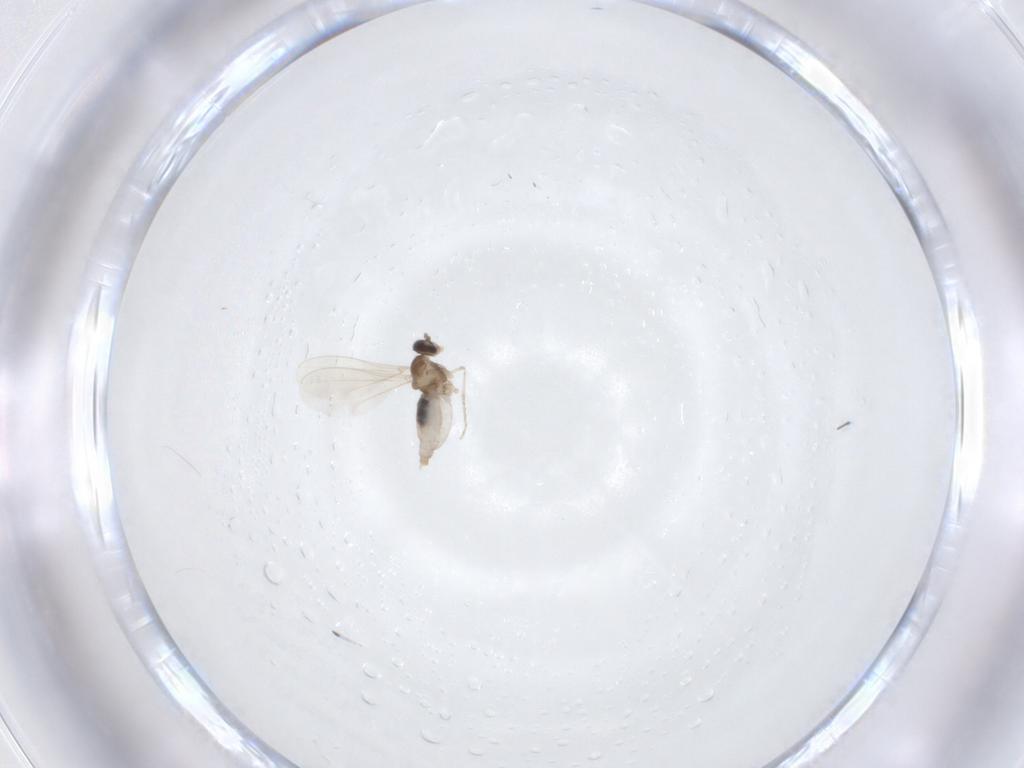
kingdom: Animalia
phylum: Arthropoda
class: Insecta
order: Diptera
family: Cecidomyiidae
